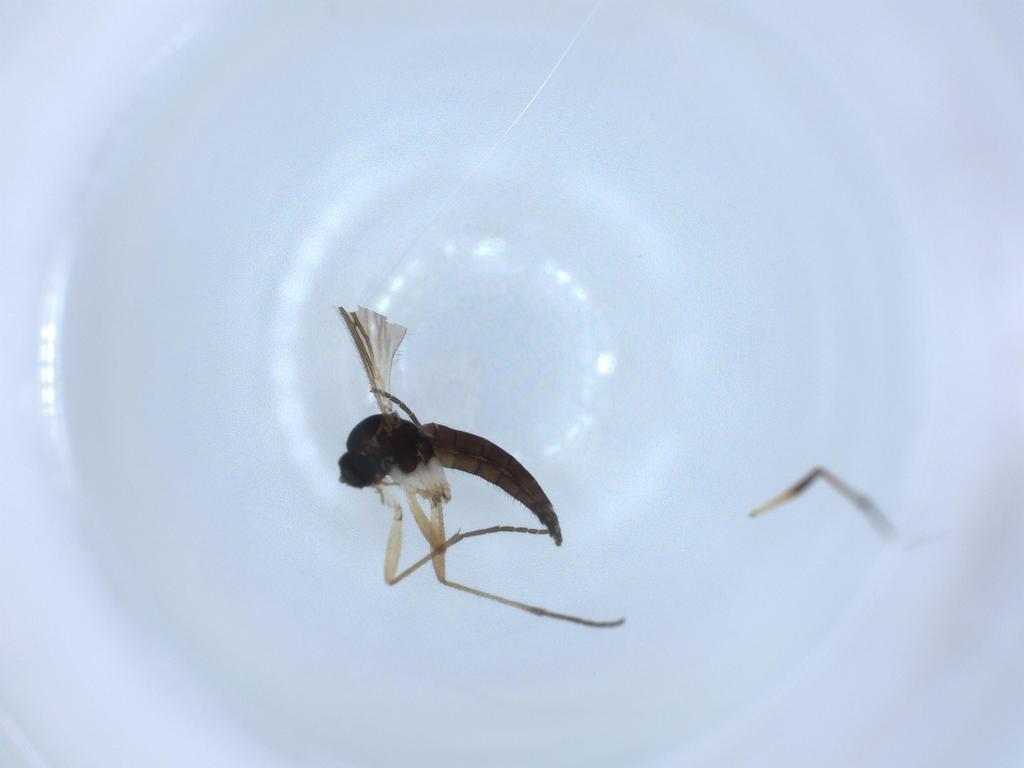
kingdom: Animalia
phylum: Arthropoda
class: Insecta
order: Diptera
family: Sciaridae
